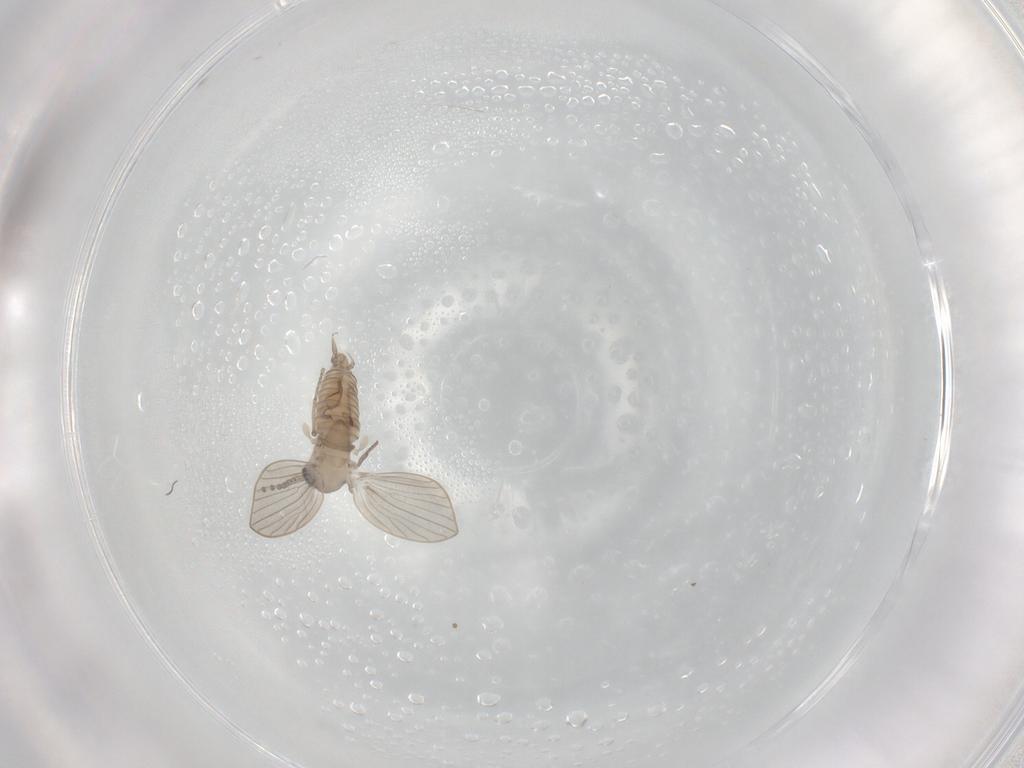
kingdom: Animalia
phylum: Arthropoda
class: Insecta
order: Diptera
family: Psychodidae
